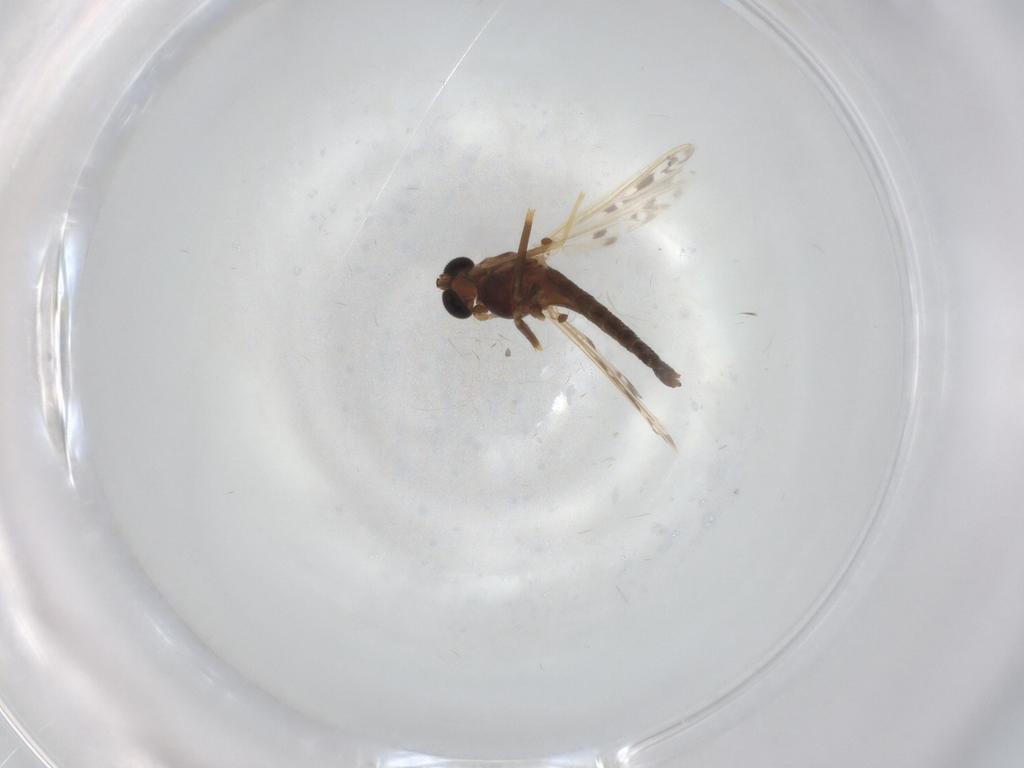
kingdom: Animalia
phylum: Arthropoda
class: Insecta
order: Diptera
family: Chironomidae
